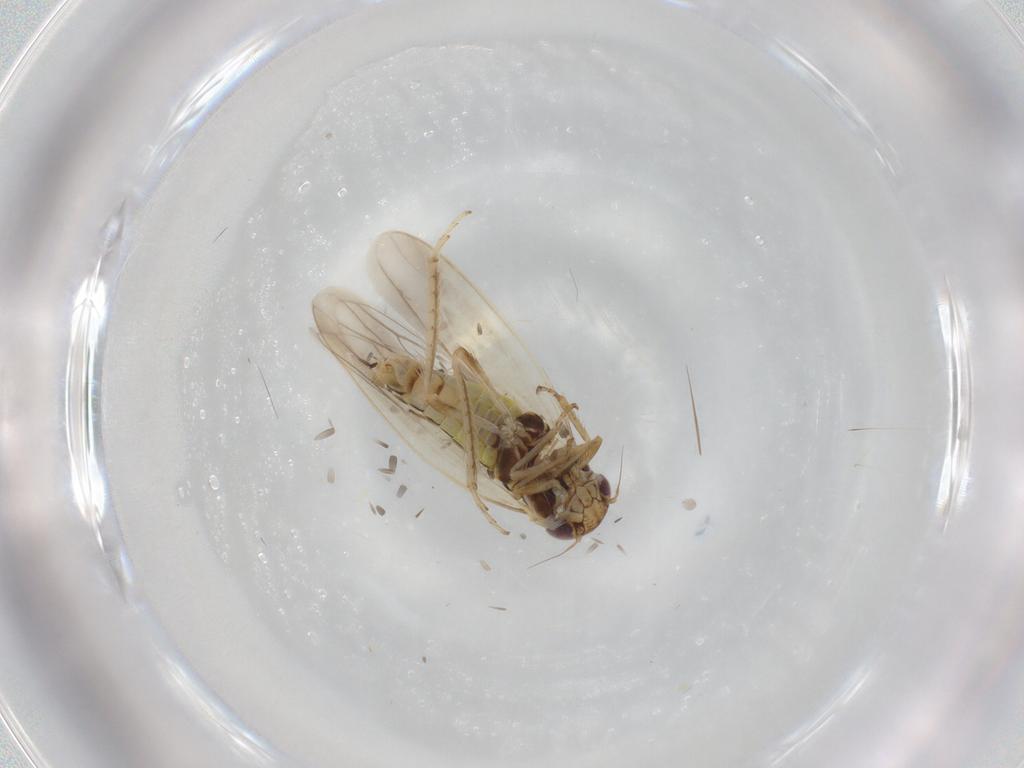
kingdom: Animalia
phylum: Arthropoda
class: Insecta
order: Hemiptera
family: Cicadellidae
